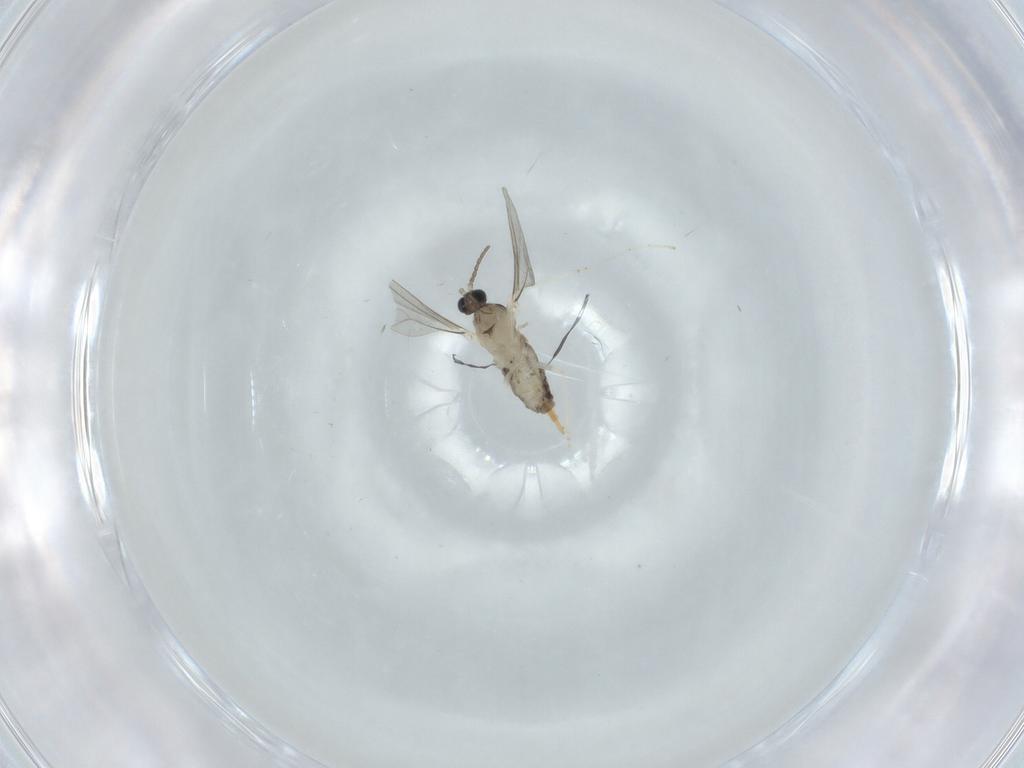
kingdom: Animalia
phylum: Arthropoda
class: Insecta
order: Diptera
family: Cecidomyiidae
